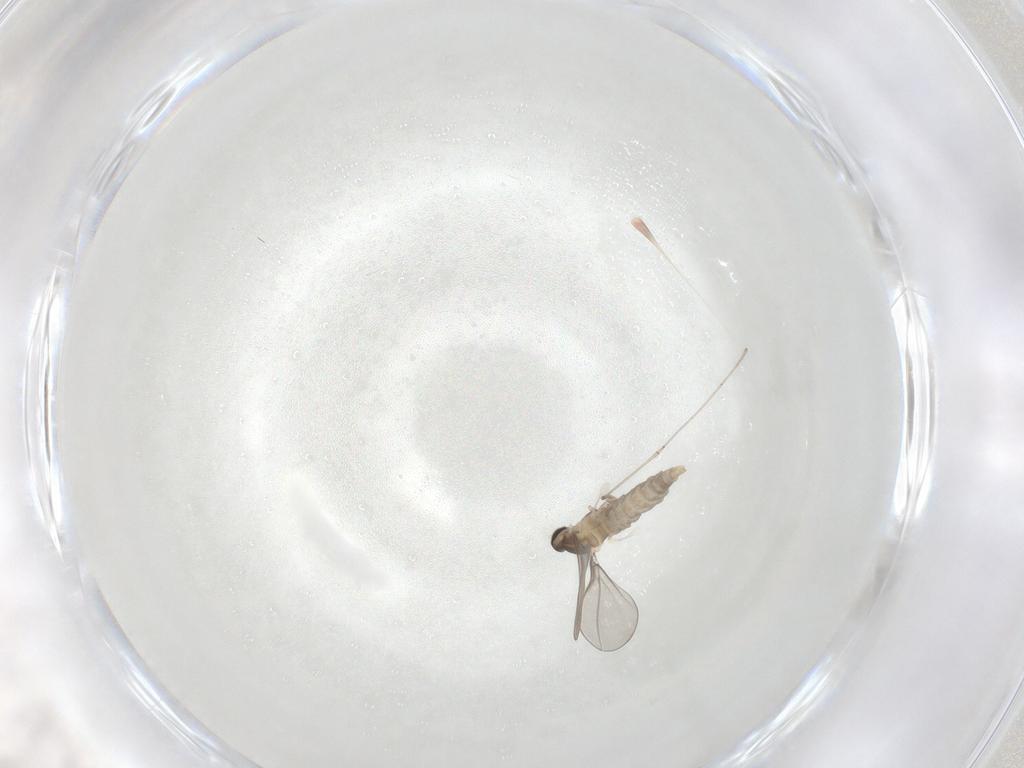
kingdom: Animalia
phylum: Arthropoda
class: Insecta
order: Diptera
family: Cecidomyiidae
